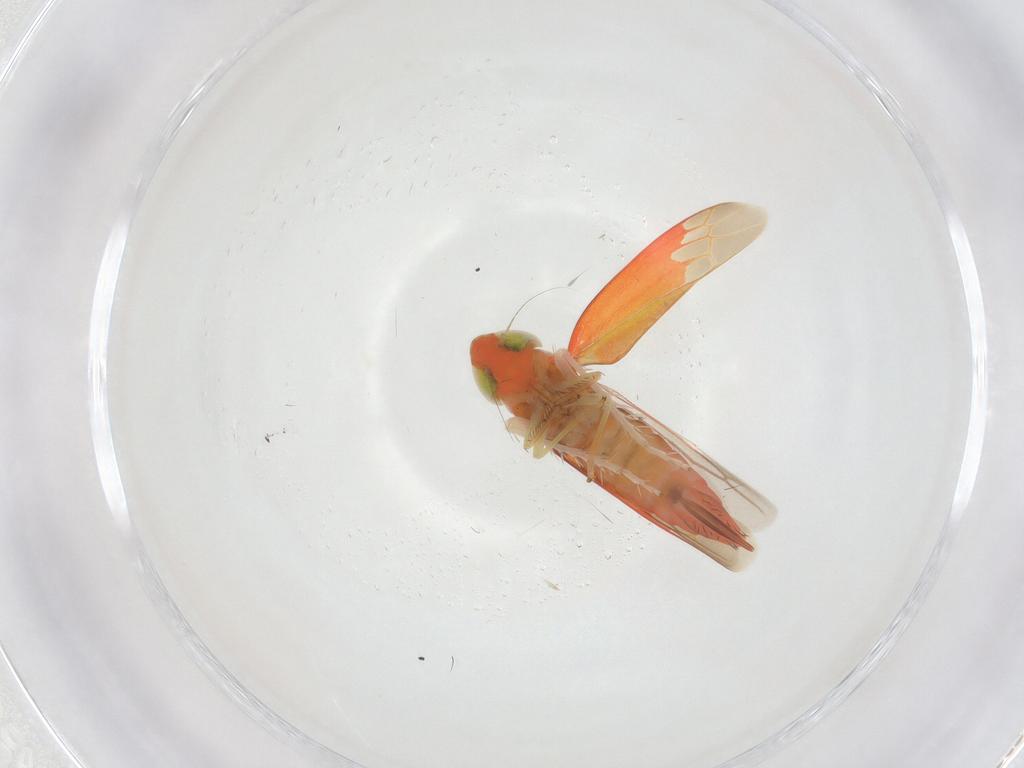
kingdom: Animalia
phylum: Arthropoda
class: Insecta
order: Hemiptera
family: Cicadellidae
